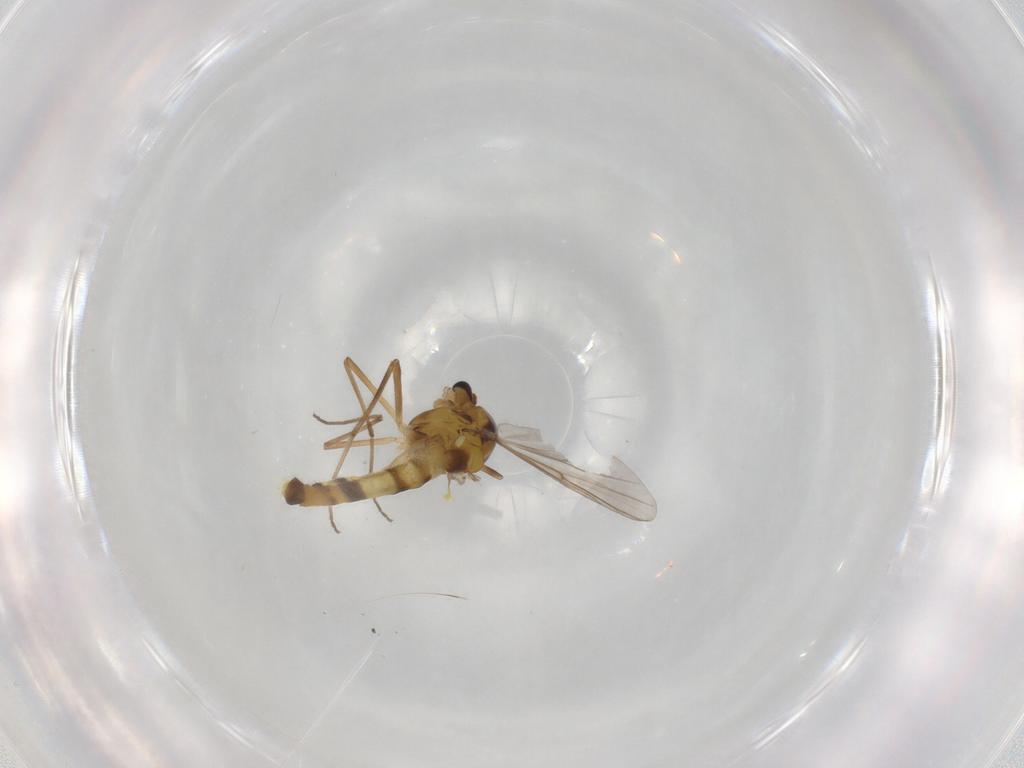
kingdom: Animalia
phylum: Arthropoda
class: Insecta
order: Diptera
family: Chironomidae
